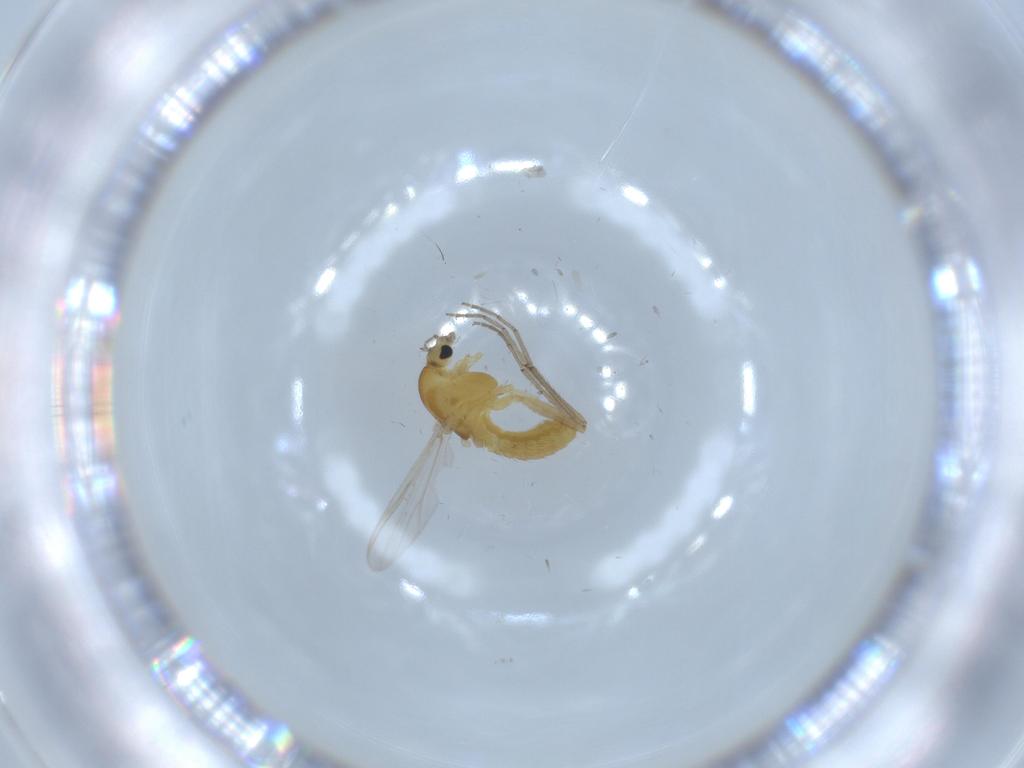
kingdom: Animalia
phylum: Arthropoda
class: Insecta
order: Diptera
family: Chironomidae
